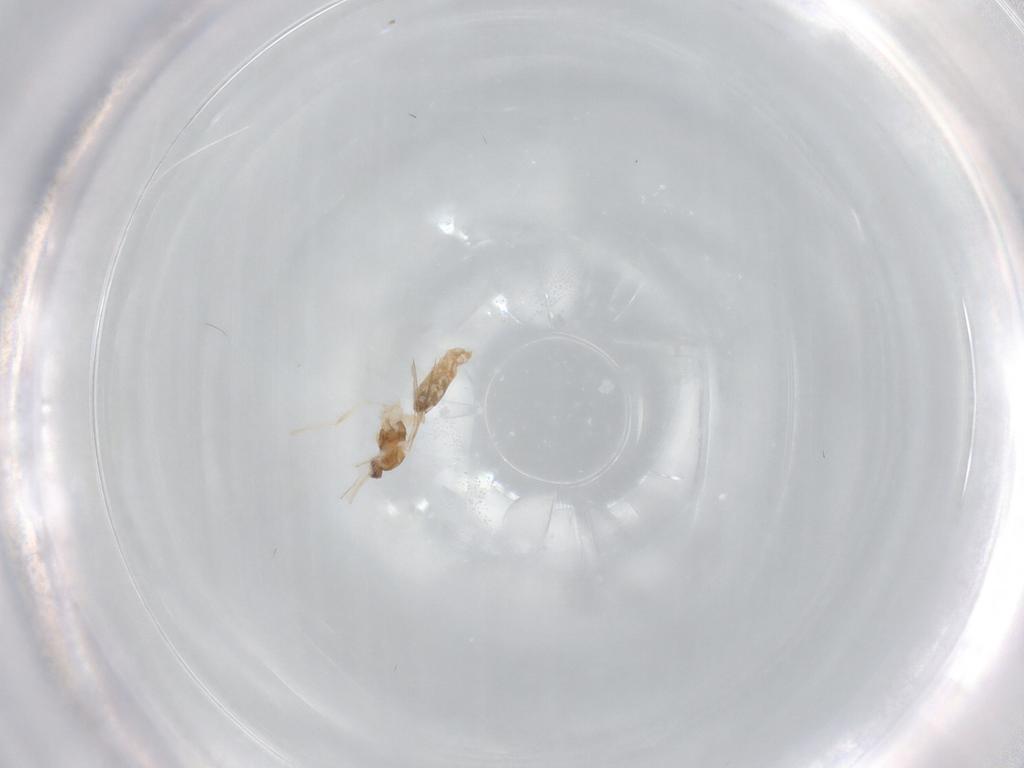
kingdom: Animalia
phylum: Arthropoda
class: Insecta
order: Diptera
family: Cecidomyiidae
